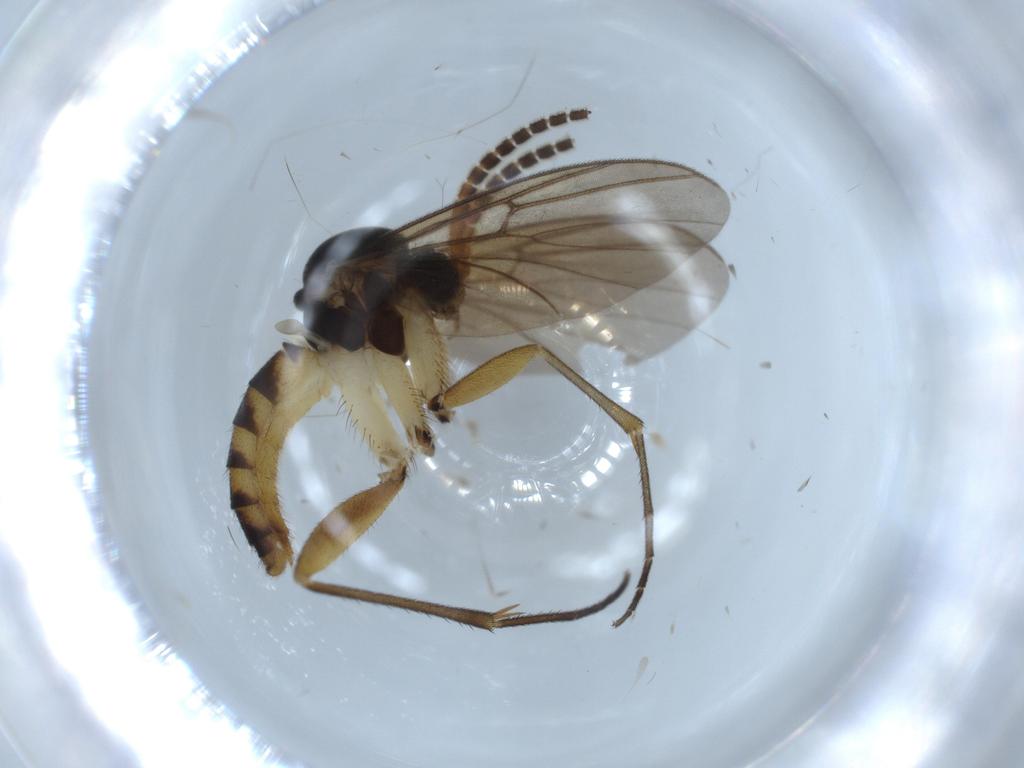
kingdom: Animalia
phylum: Arthropoda
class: Insecta
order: Diptera
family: Hybotidae
